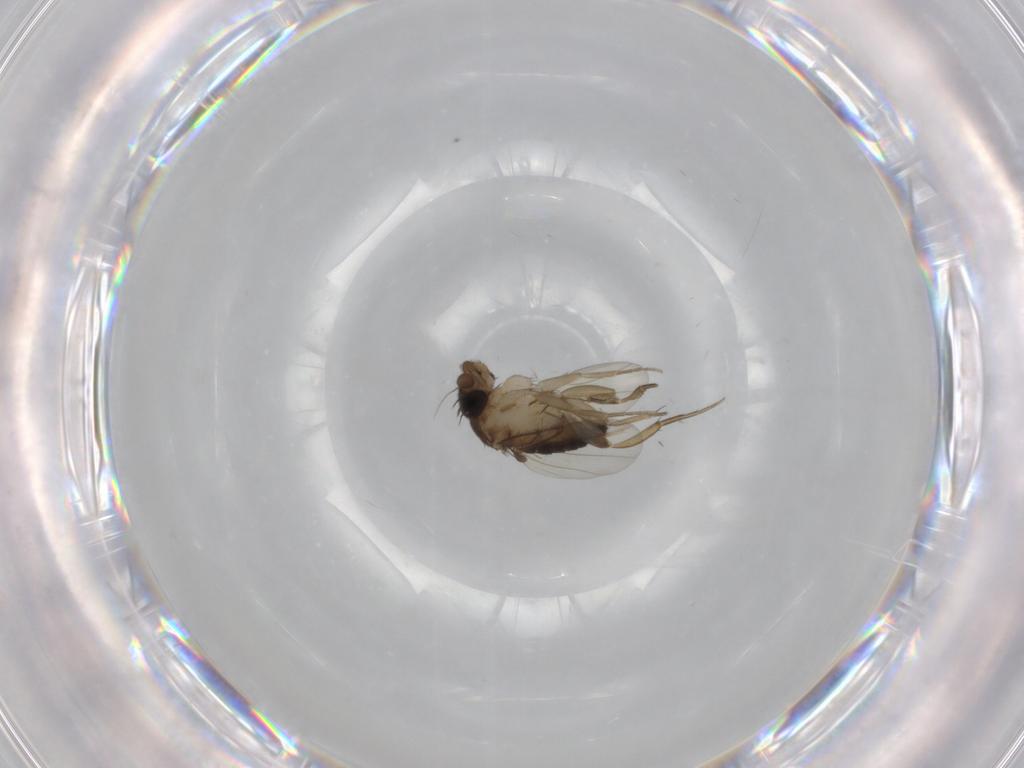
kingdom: Animalia
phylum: Arthropoda
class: Insecta
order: Diptera
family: Phoridae
